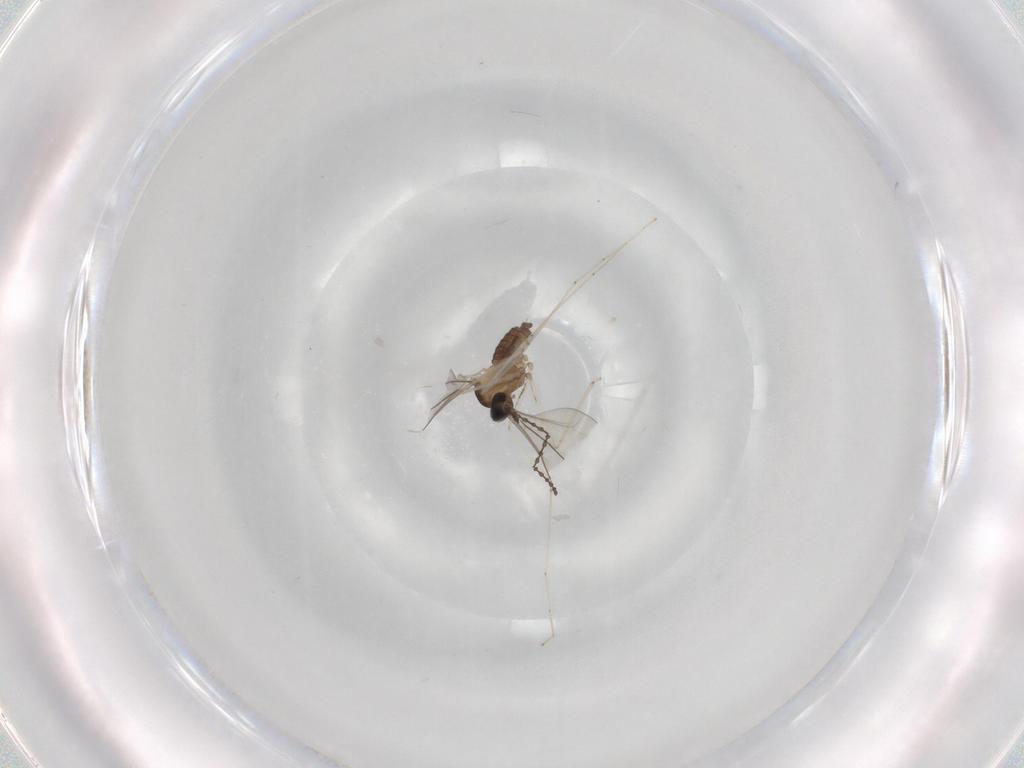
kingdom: Animalia
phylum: Arthropoda
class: Insecta
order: Diptera
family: Cecidomyiidae
